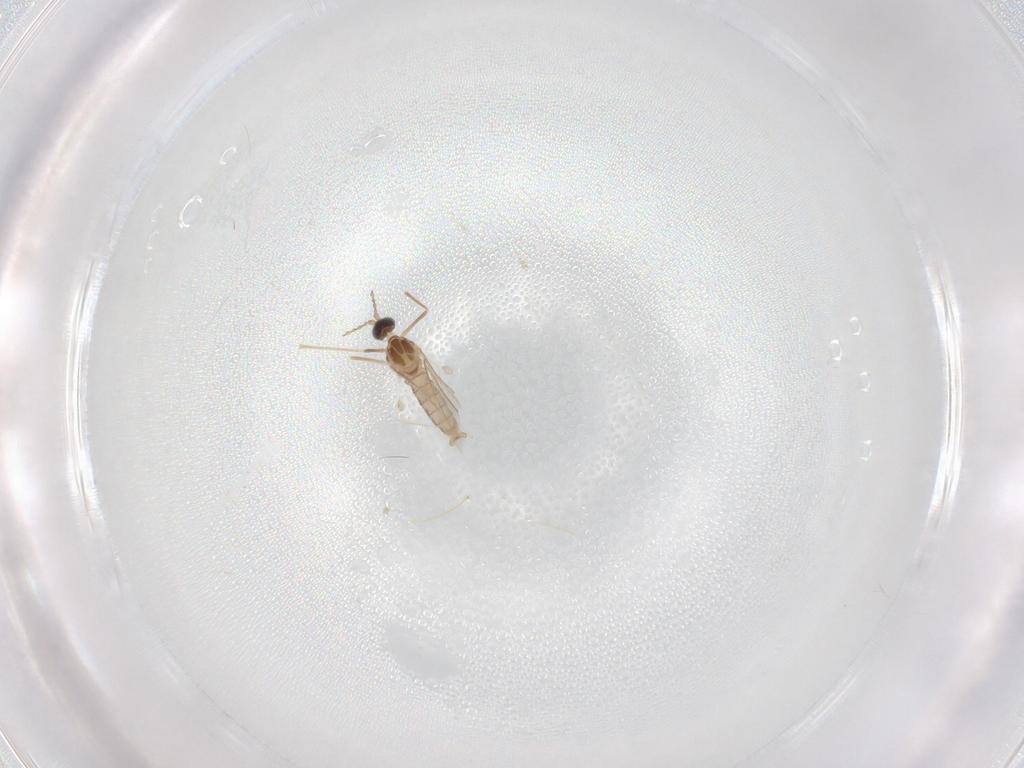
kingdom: Animalia
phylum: Arthropoda
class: Insecta
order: Diptera
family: Cecidomyiidae
